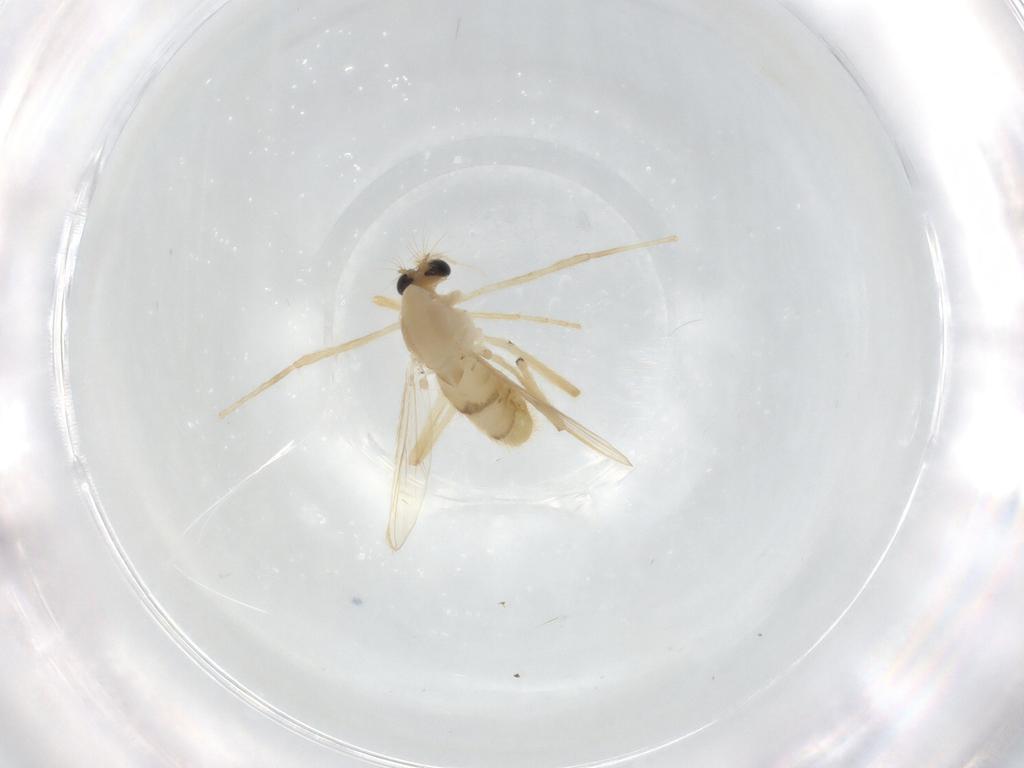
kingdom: Animalia
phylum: Arthropoda
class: Insecta
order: Diptera
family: Chironomidae
